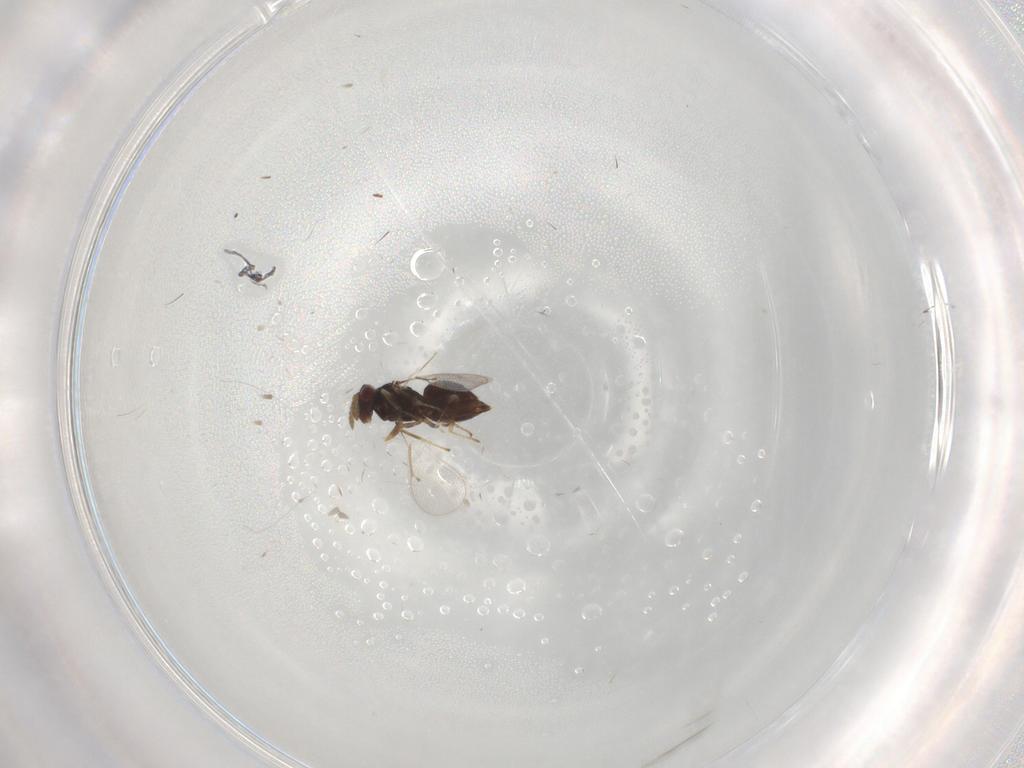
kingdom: Animalia
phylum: Arthropoda
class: Insecta
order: Hymenoptera
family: Eulophidae
